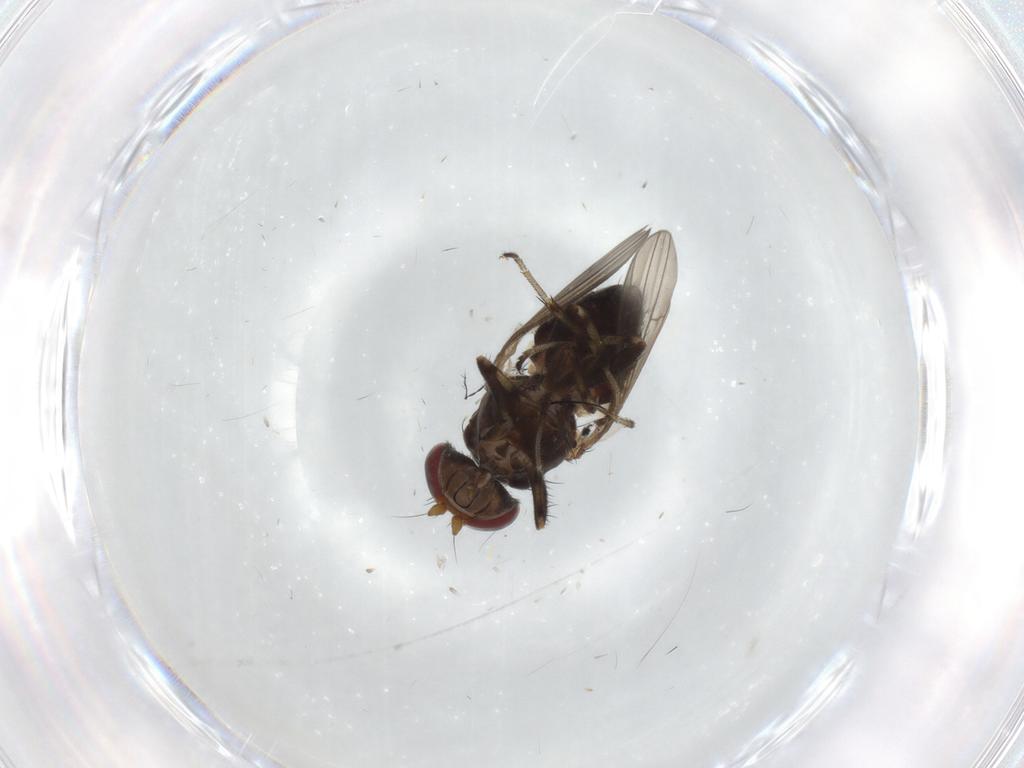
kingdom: Animalia
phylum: Arthropoda
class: Insecta
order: Diptera
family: Heleomyzidae
